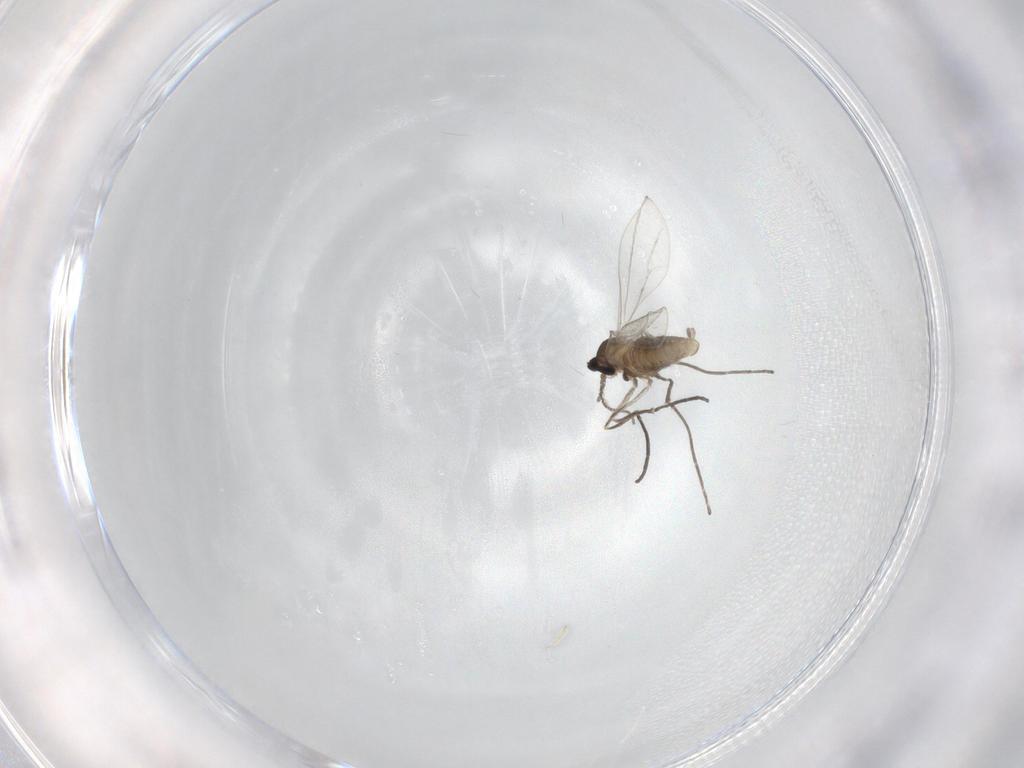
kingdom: Animalia
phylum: Arthropoda
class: Insecta
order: Diptera
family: Cecidomyiidae
